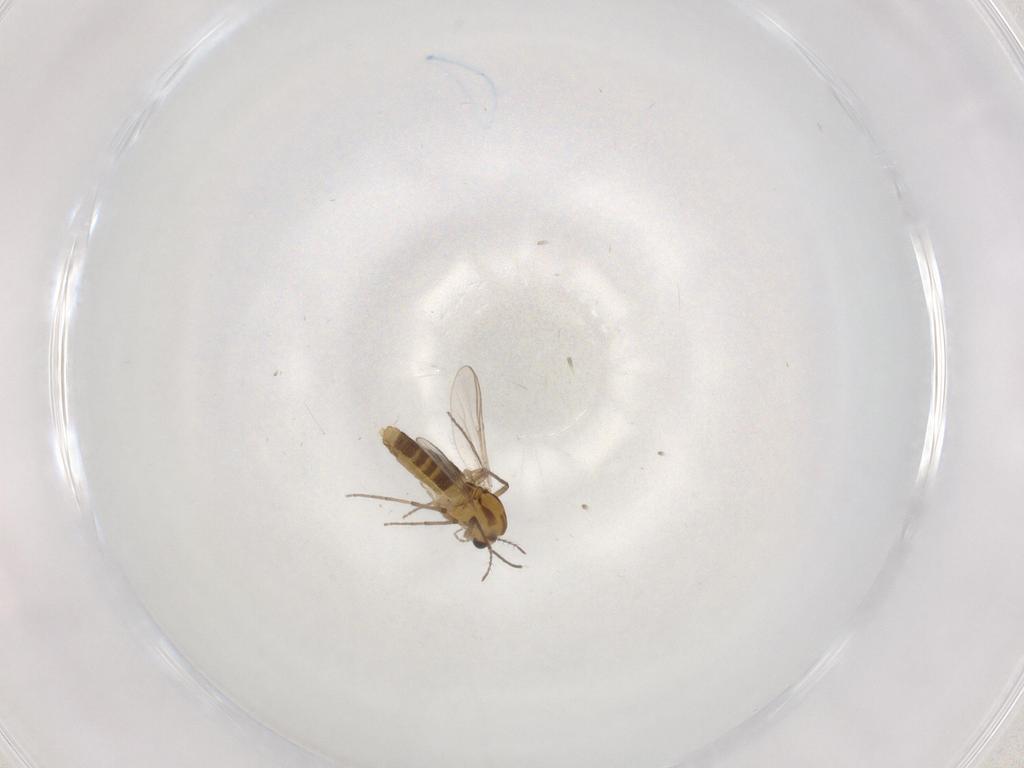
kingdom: Animalia
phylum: Arthropoda
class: Insecta
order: Diptera
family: Chironomidae
